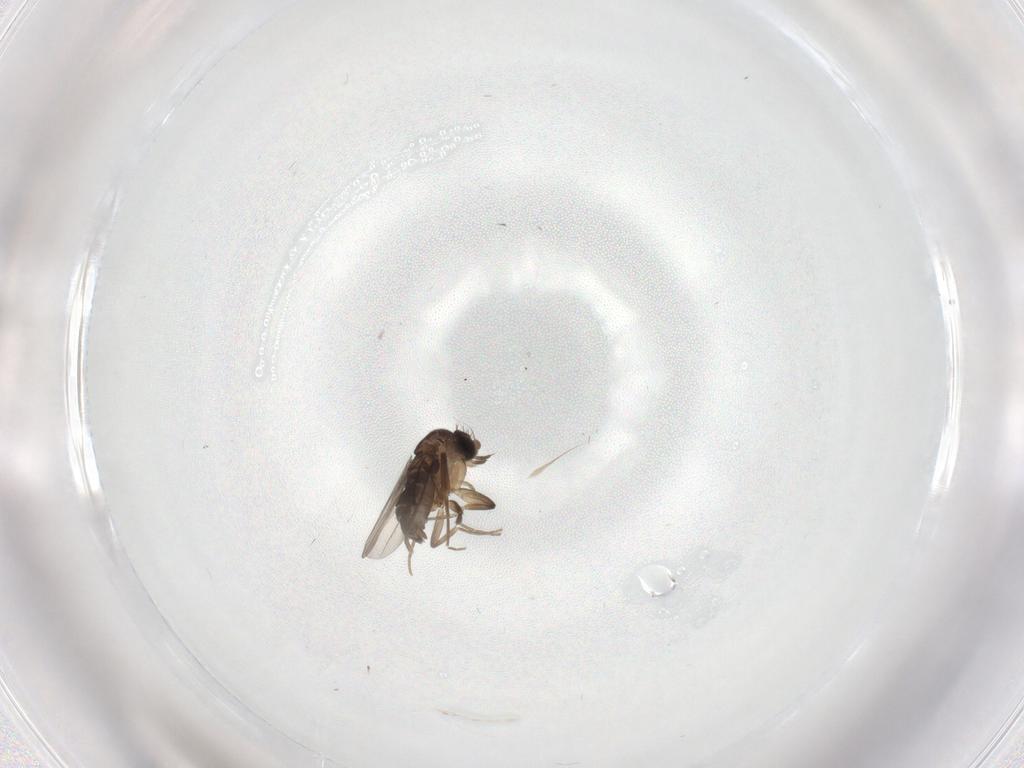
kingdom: Animalia
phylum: Arthropoda
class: Insecta
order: Diptera
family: Phoridae
